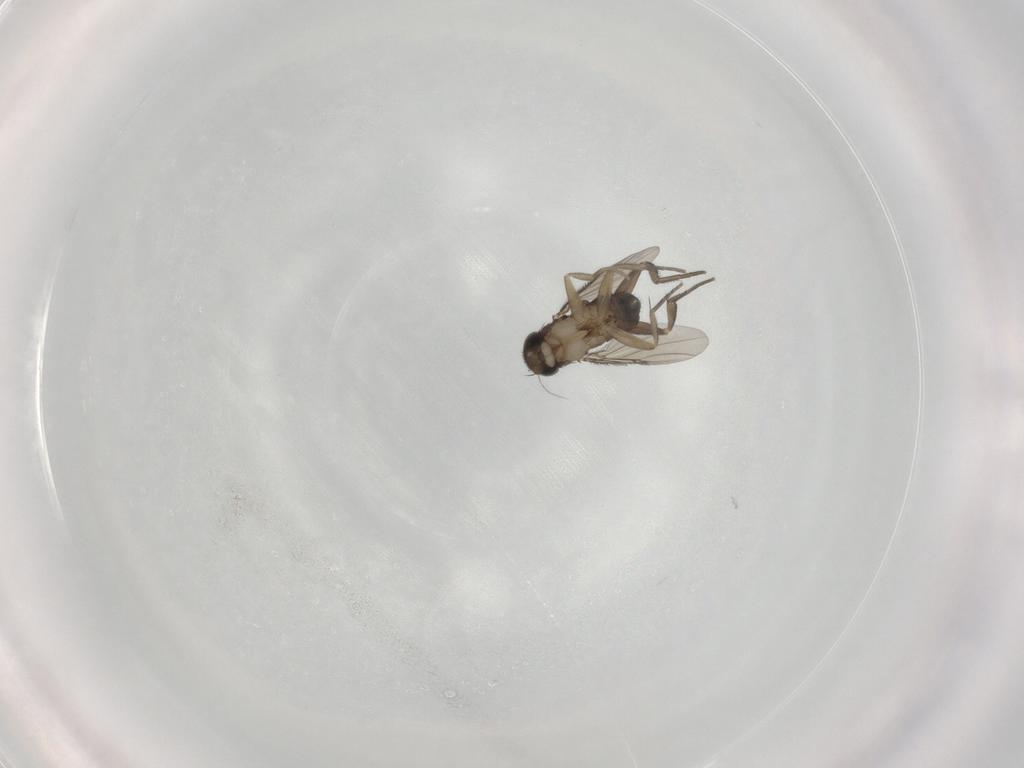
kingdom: Animalia
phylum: Arthropoda
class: Insecta
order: Diptera
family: Phoridae
